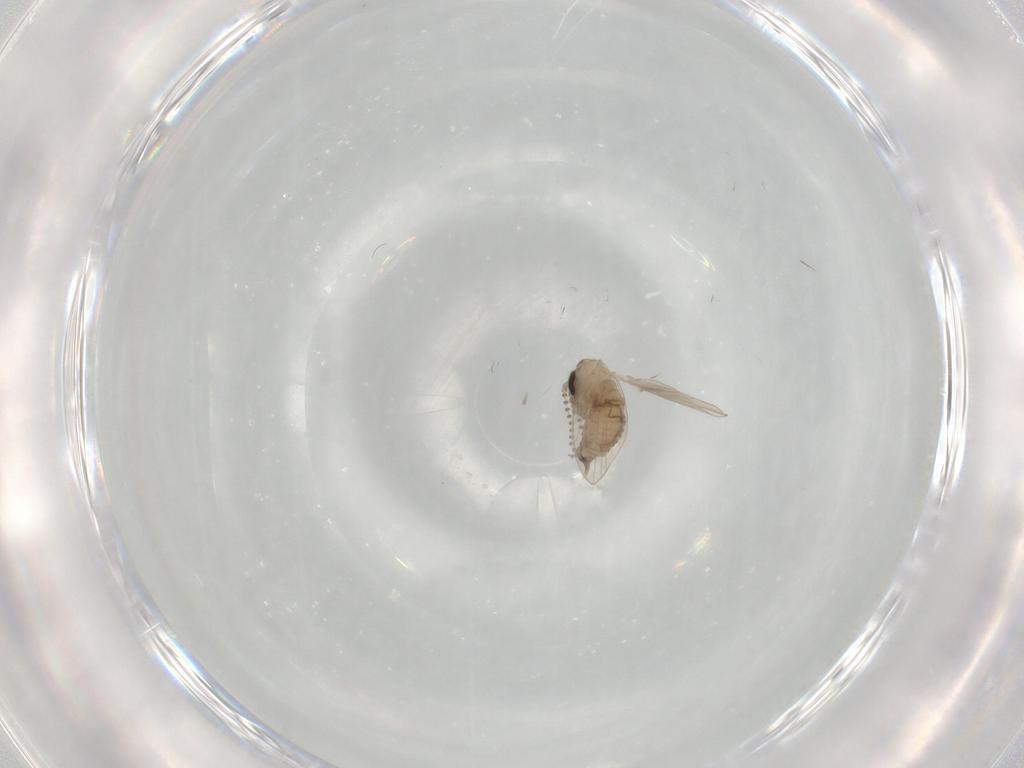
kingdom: Animalia
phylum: Arthropoda
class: Insecta
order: Diptera
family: Psychodidae
